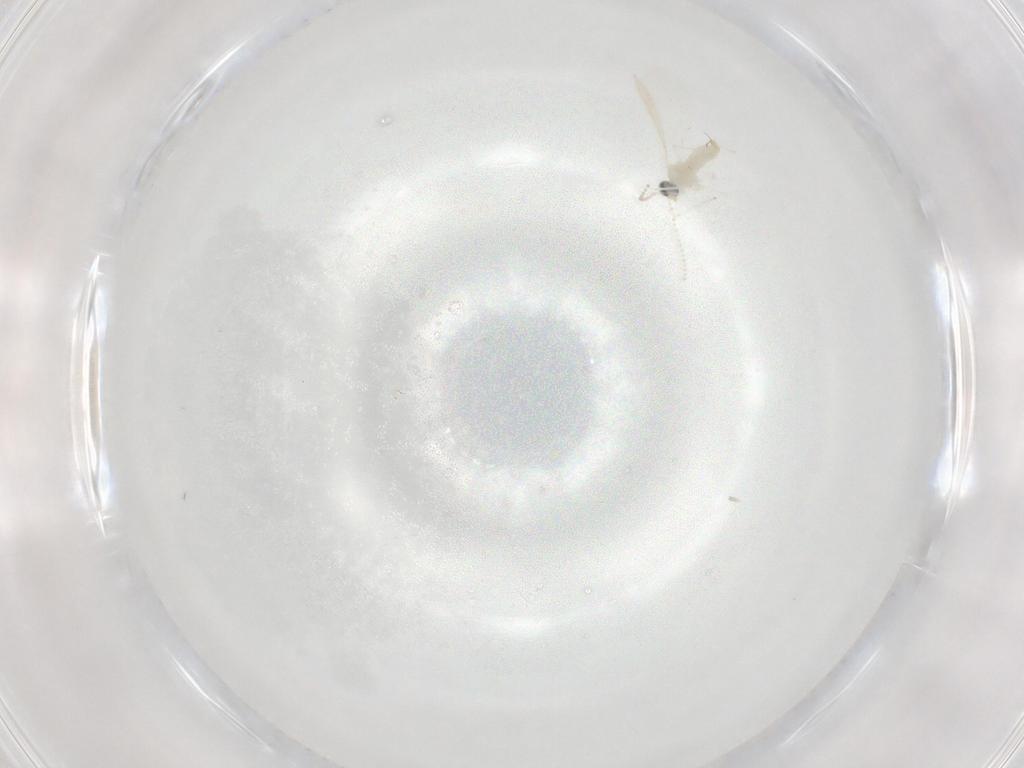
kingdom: Animalia
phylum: Arthropoda
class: Insecta
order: Diptera
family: Cecidomyiidae
